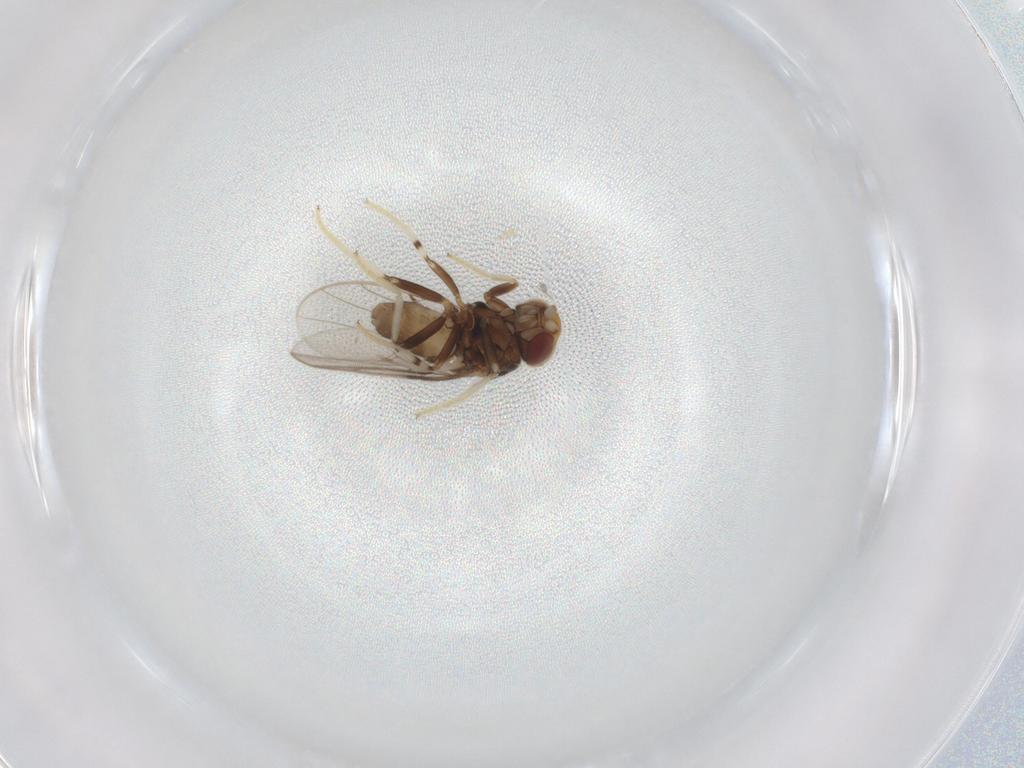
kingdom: Animalia
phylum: Arthropoda
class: Insecta
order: Diptera
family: Chloropidae
